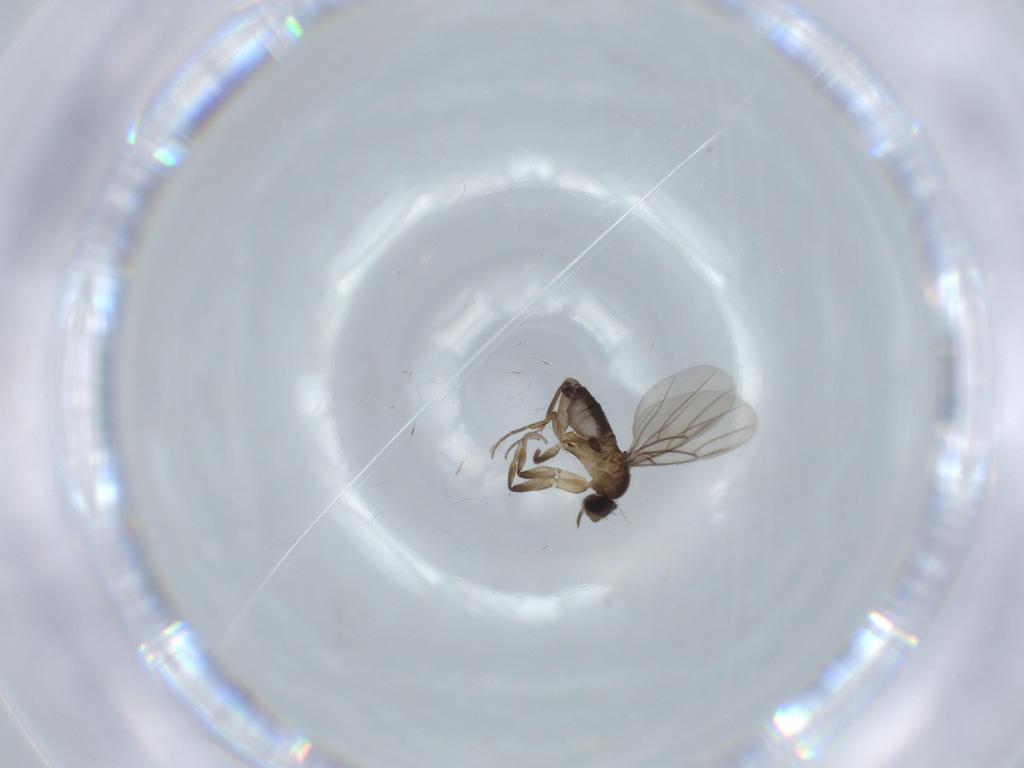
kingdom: Animalia
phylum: Arthropoda
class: Insecta
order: Diptera
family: Phoridae
